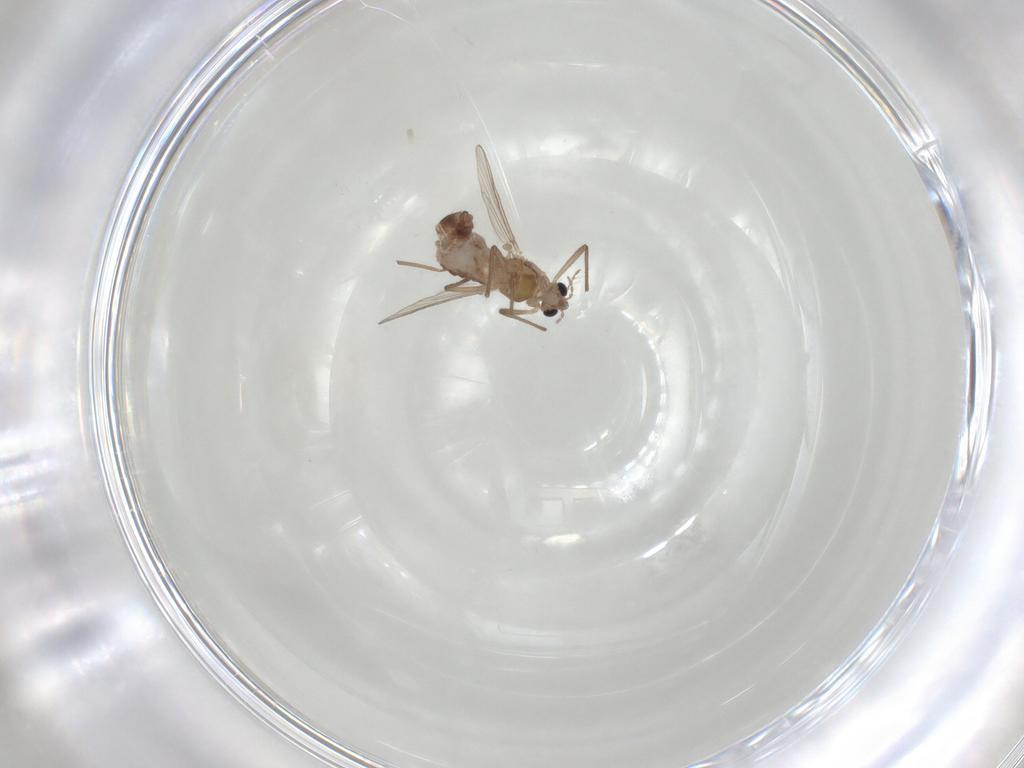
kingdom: Animalia
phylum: Arthropoda
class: Insecta
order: Diptera
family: Chironomidae
